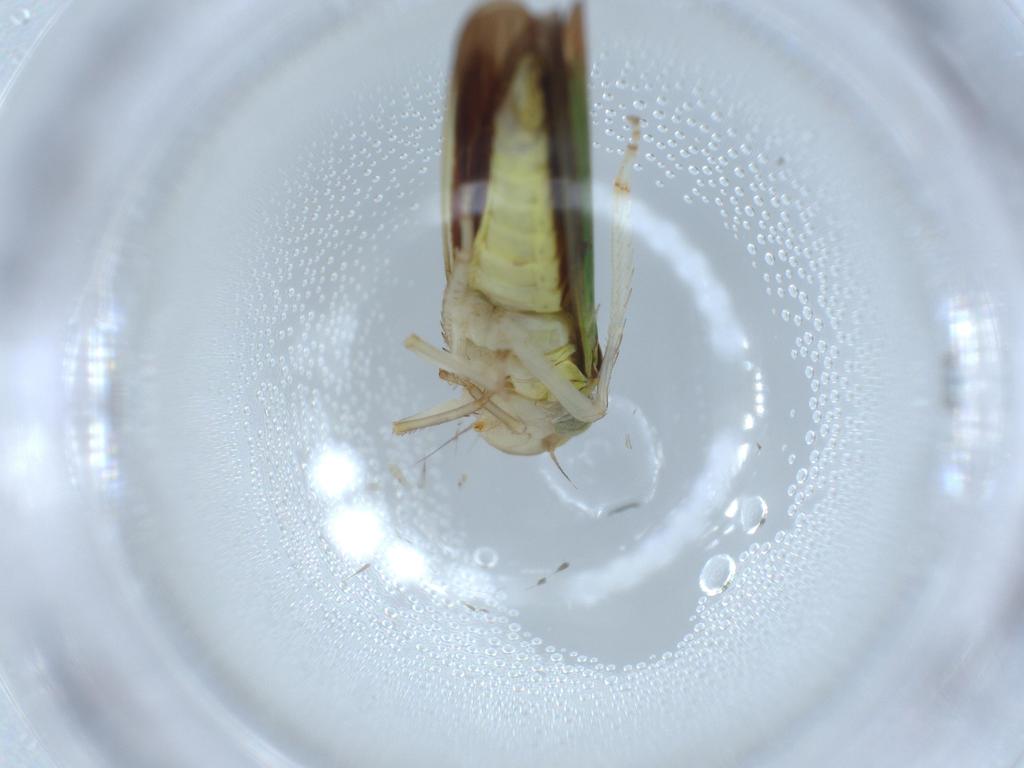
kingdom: Animalia
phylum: Arthropoda
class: Insecta
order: Hemiptera
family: Cicadellidae
